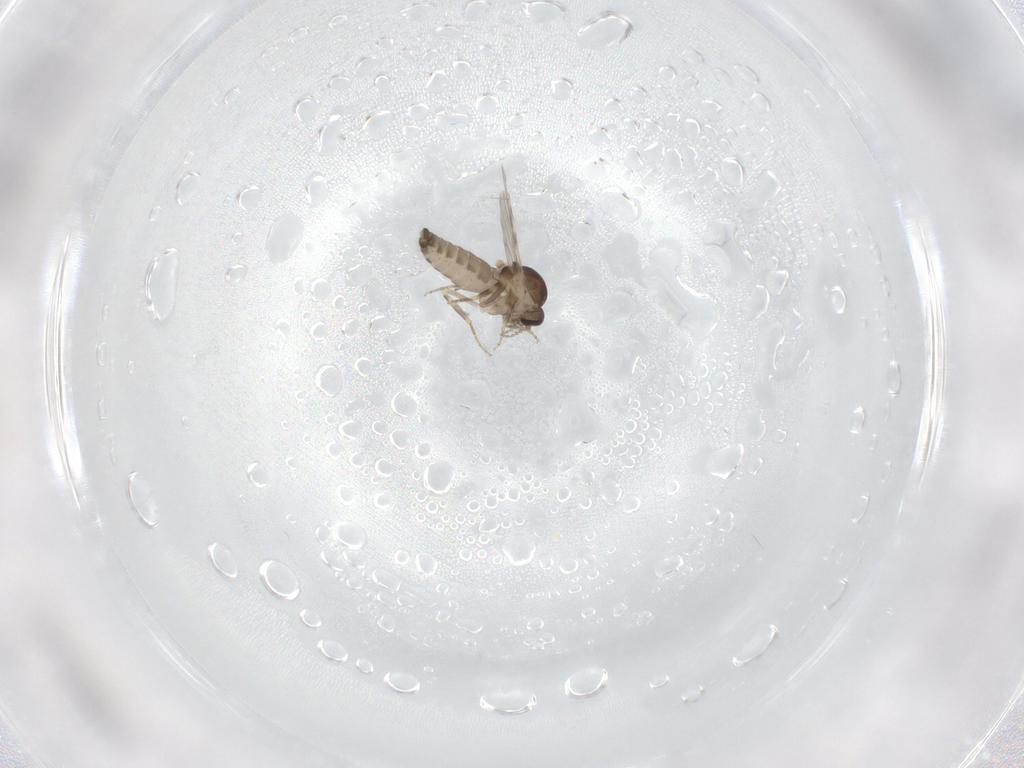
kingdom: Animalia
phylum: Arthropoda
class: Insecta
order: Diptera
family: Ceratopogonidae
